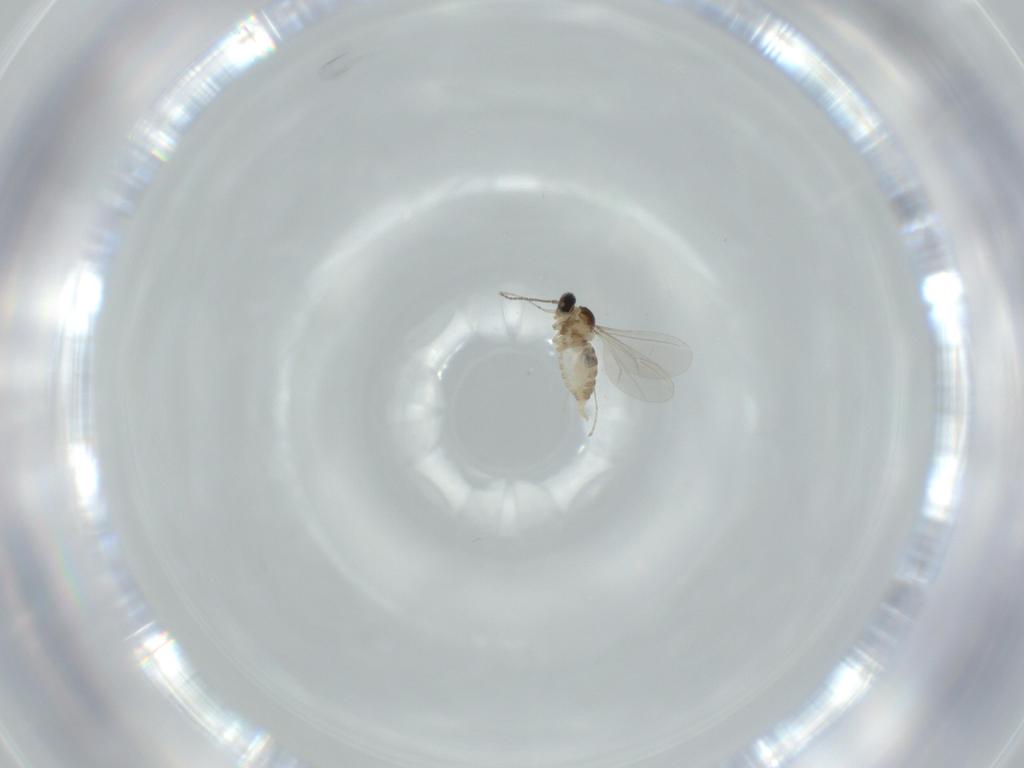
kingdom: Animalia
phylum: Arthropoda
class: Insecta
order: Diptera
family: Cecidomyiidae
